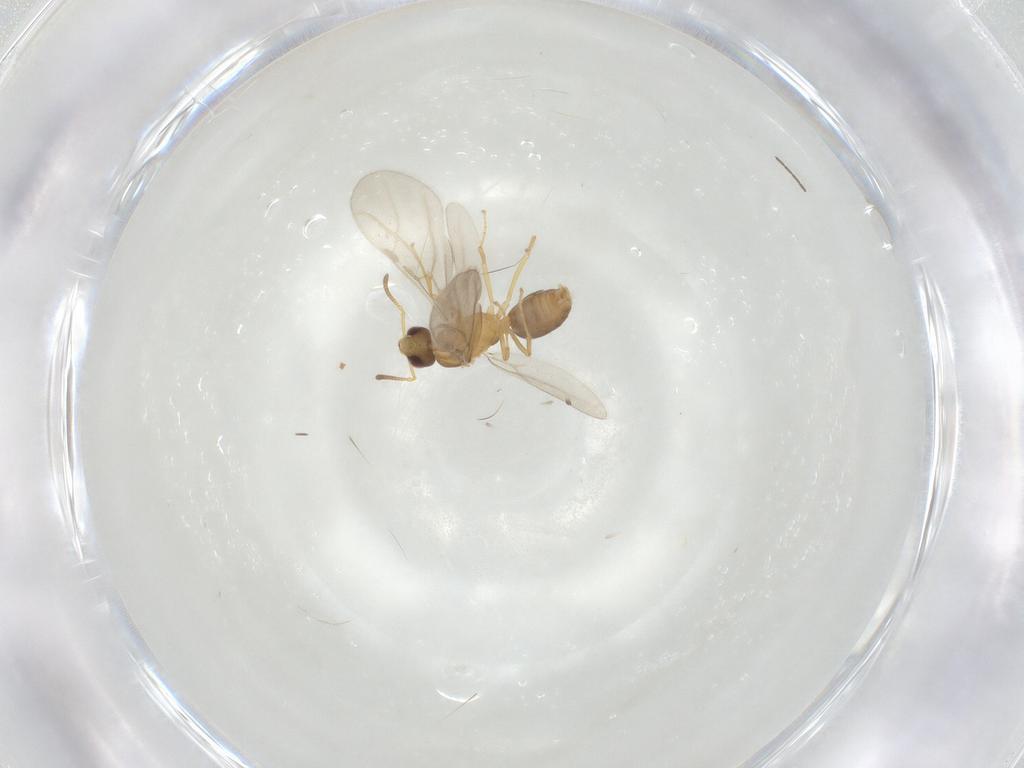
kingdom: Animalia
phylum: Arthropoda
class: Insecta
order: Hymenoptera
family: Formicidae
